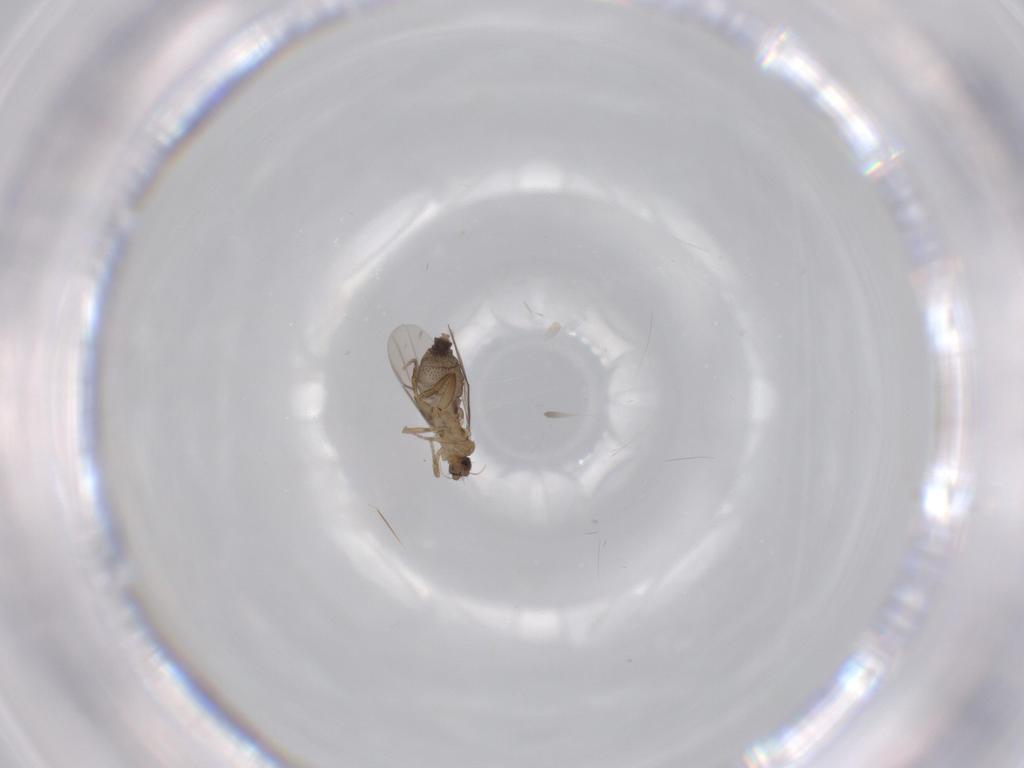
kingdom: Animalia
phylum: Arthropoda
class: Insecta
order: Diptera
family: Phoridae
